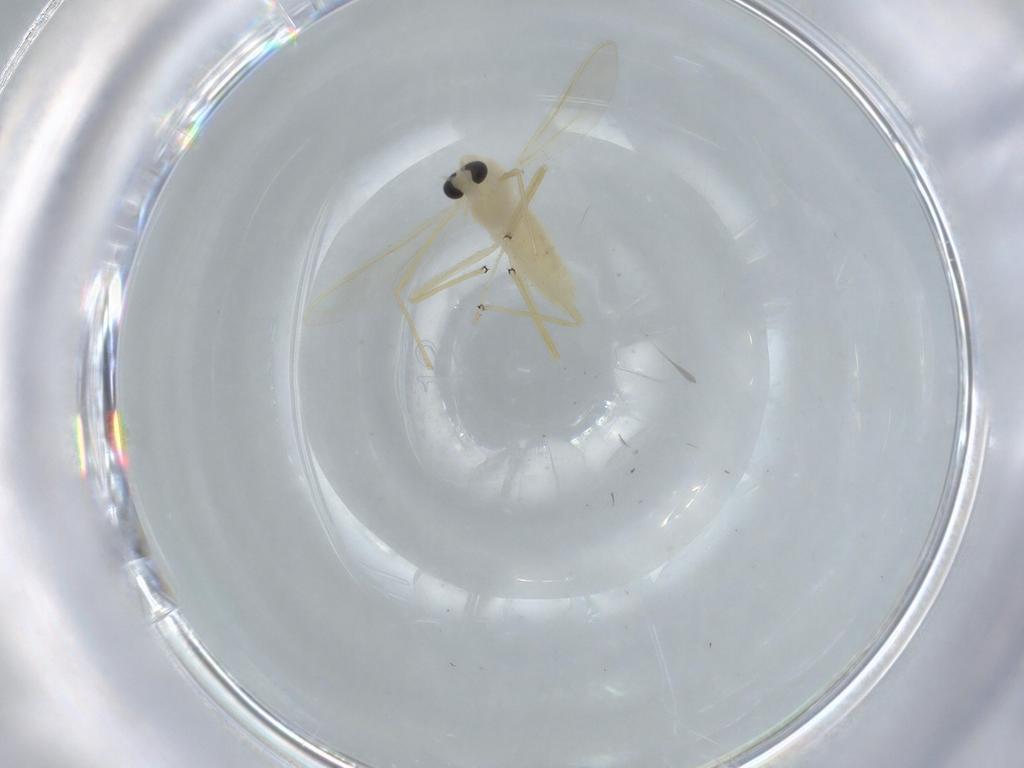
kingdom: Animalia
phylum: Arthropoda
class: Insecta
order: Diptera
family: Chironomidae
